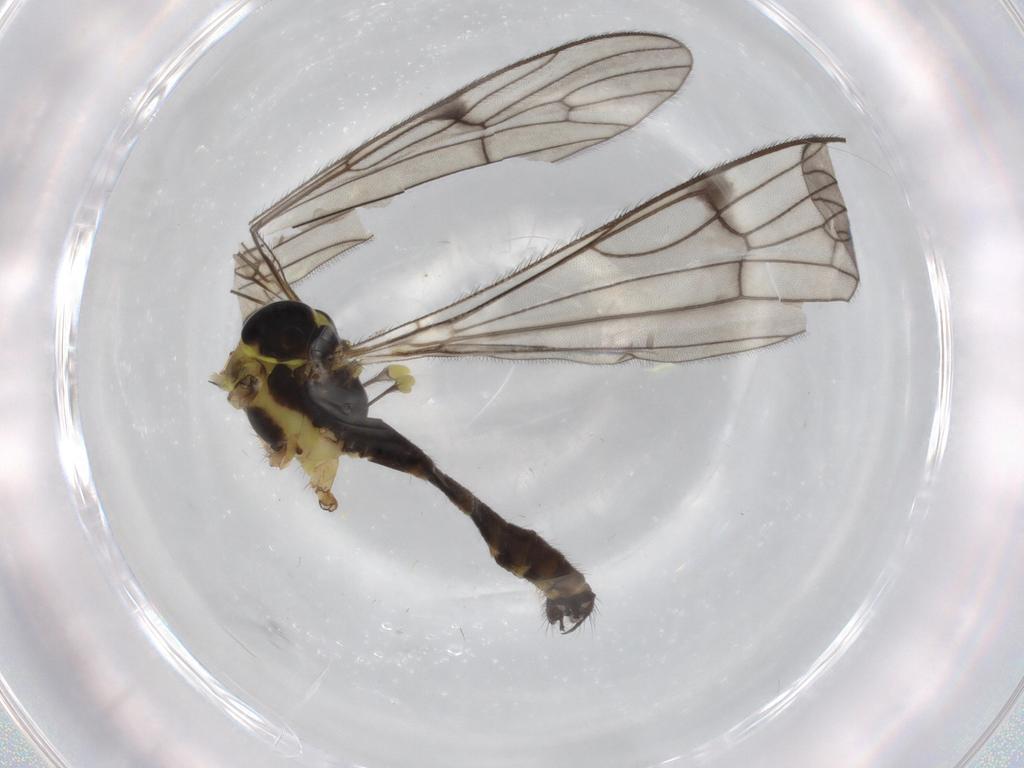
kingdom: Animalia
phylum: Arthropoda
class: Insecta
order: Diptera
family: Limoniidae
